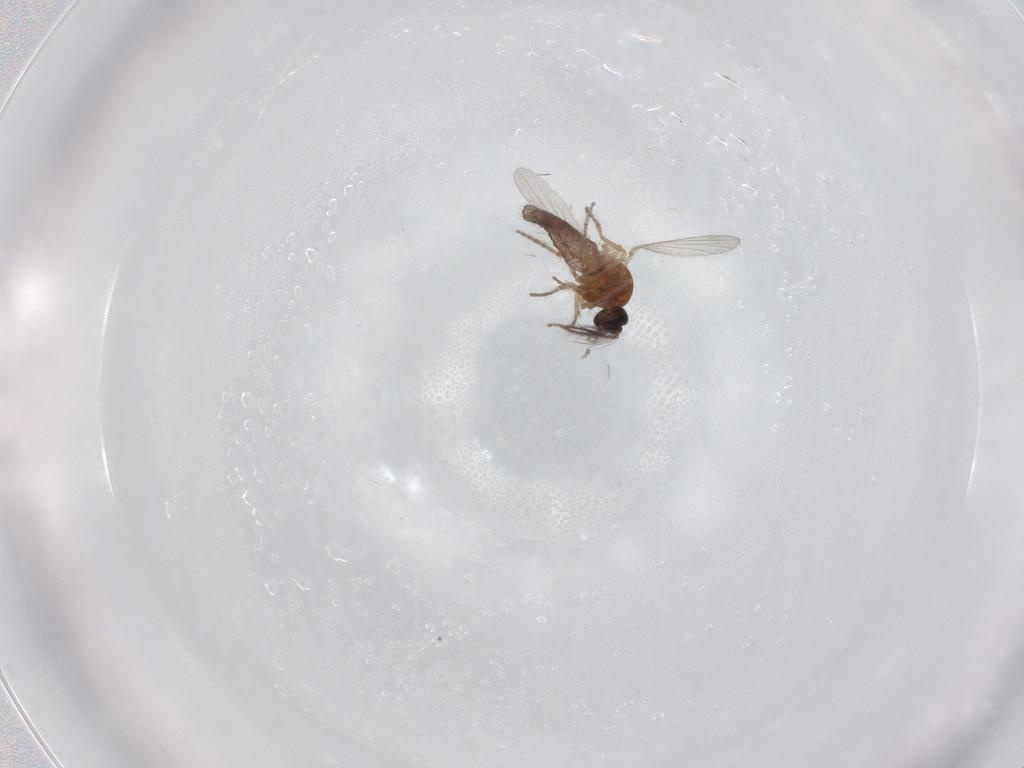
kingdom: Animalia
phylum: Arthropoda
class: Insecta
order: Diptera
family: Ceratopogonidae
